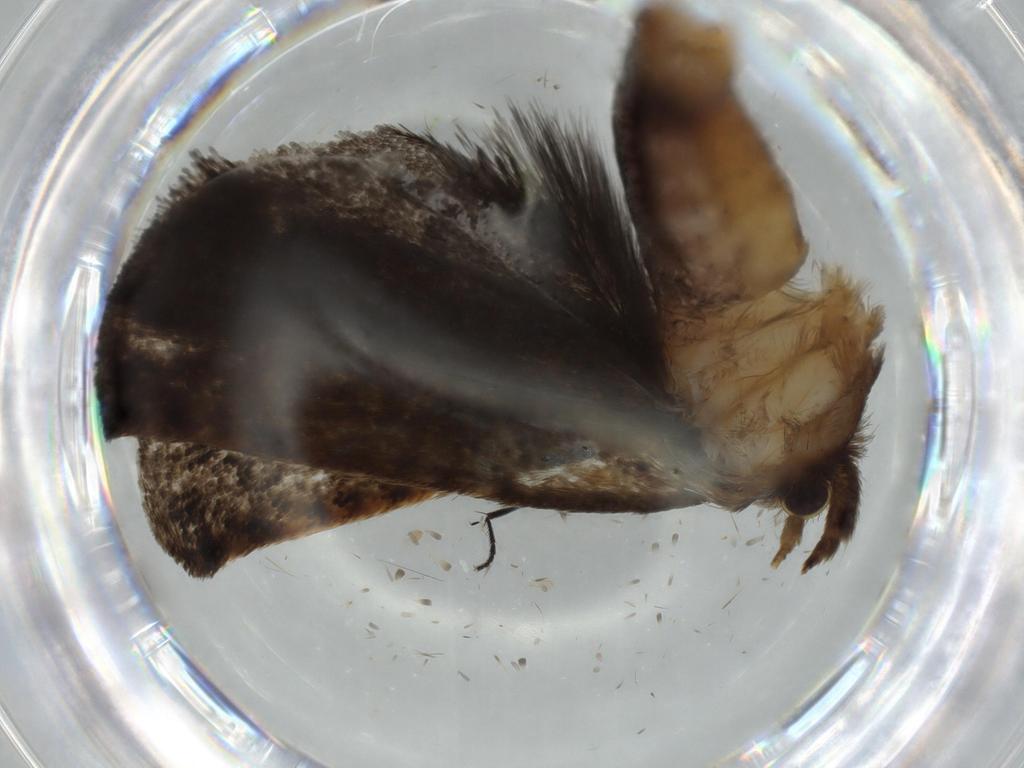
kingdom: Animalia
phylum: Arthropoda
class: Insecta
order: Lepidoptera
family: Tineidae
